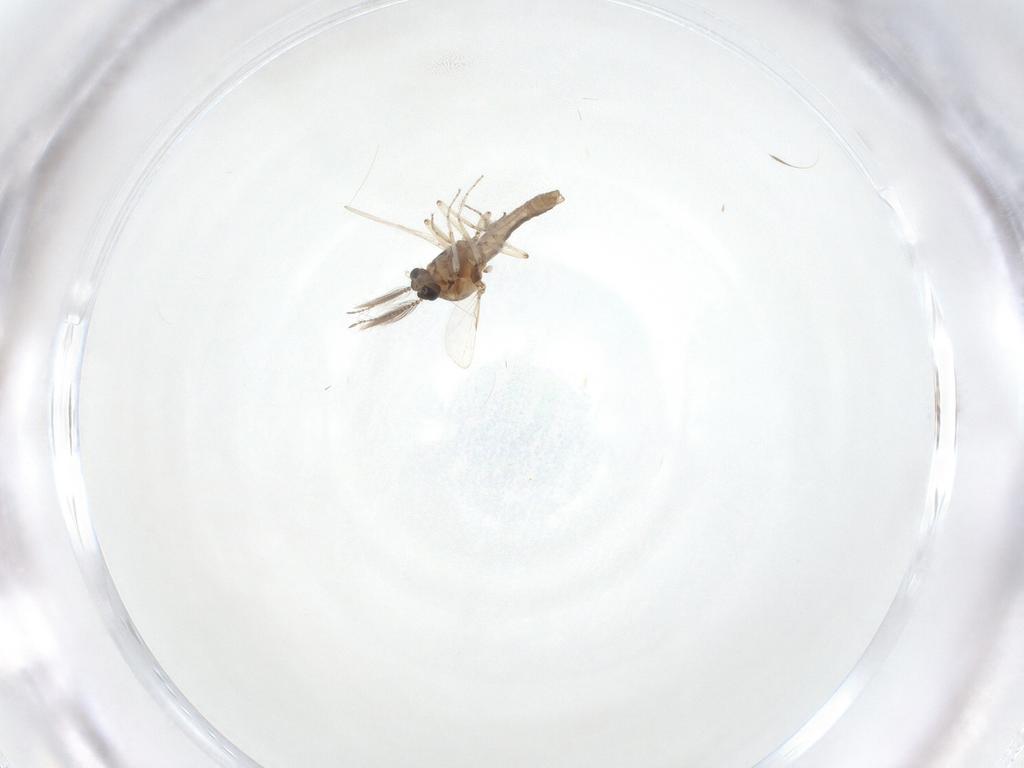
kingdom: Animalia
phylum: Arthropoda
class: Insecta
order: Diptera
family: Ceratopogonidae
